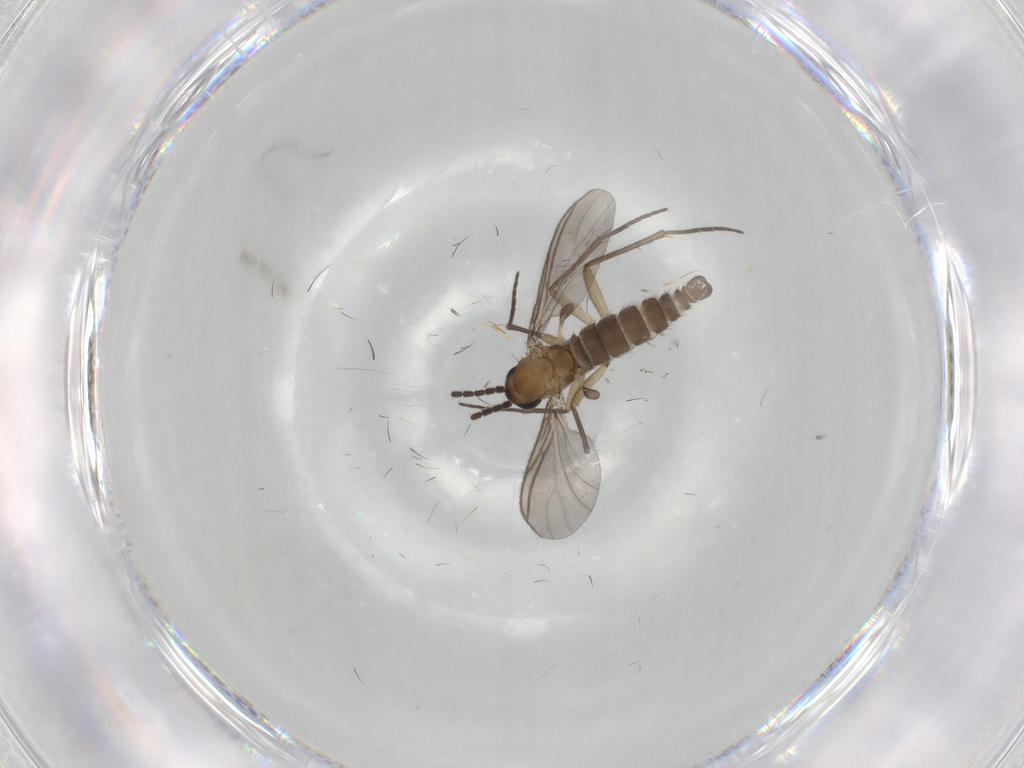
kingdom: Animalia
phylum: Arthropoda
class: Insecta
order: Diptera
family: Sciaridae
